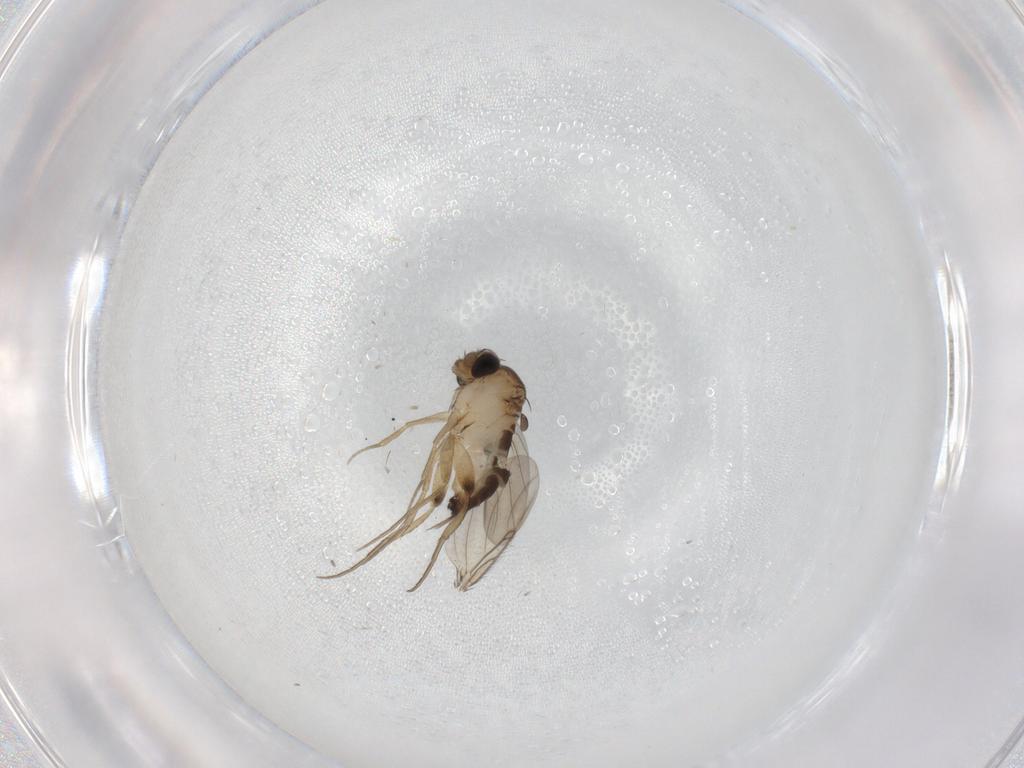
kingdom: Animalia
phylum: Arthropoda
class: Insecta
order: Diptera
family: Phoridae
